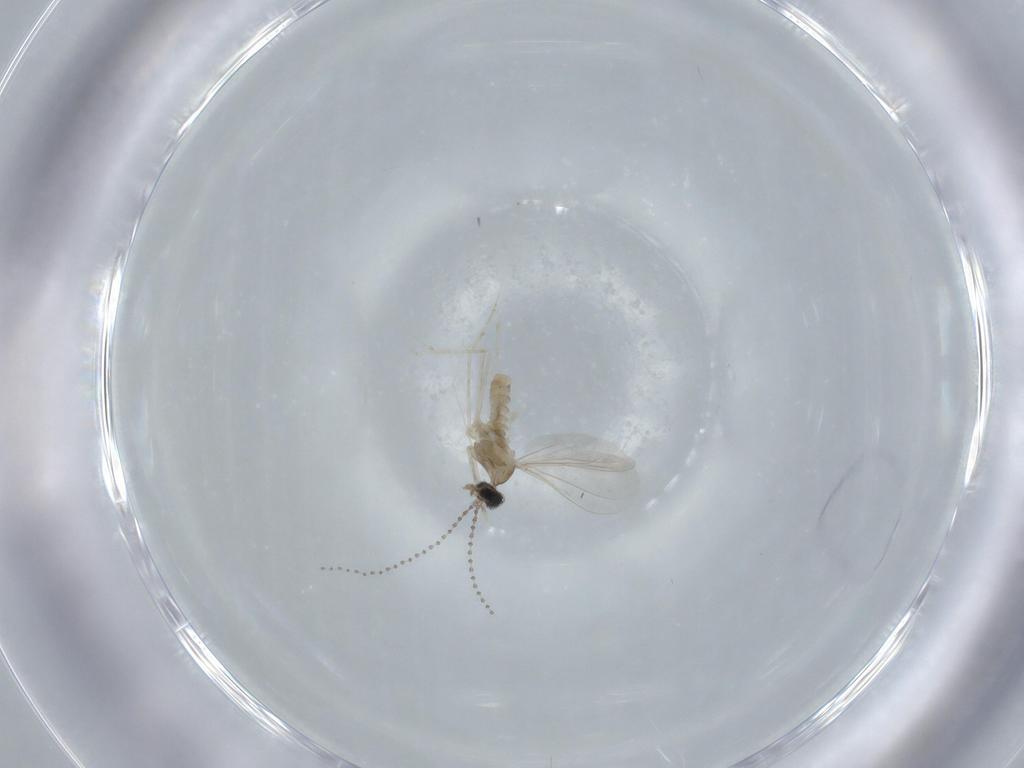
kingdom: Animalia
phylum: Arthropoda
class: Insecta
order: Diptera
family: Cecidomyiidae
